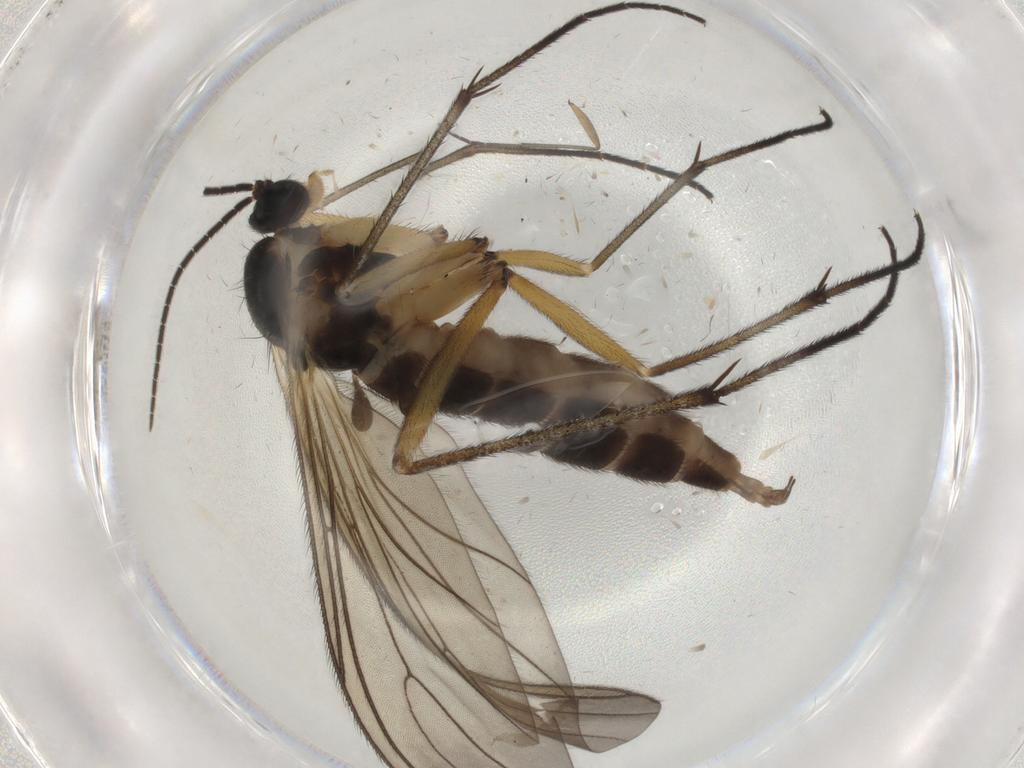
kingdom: Animalia
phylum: Arthropoda
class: Insecta
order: Diptera
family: Sciaridae
